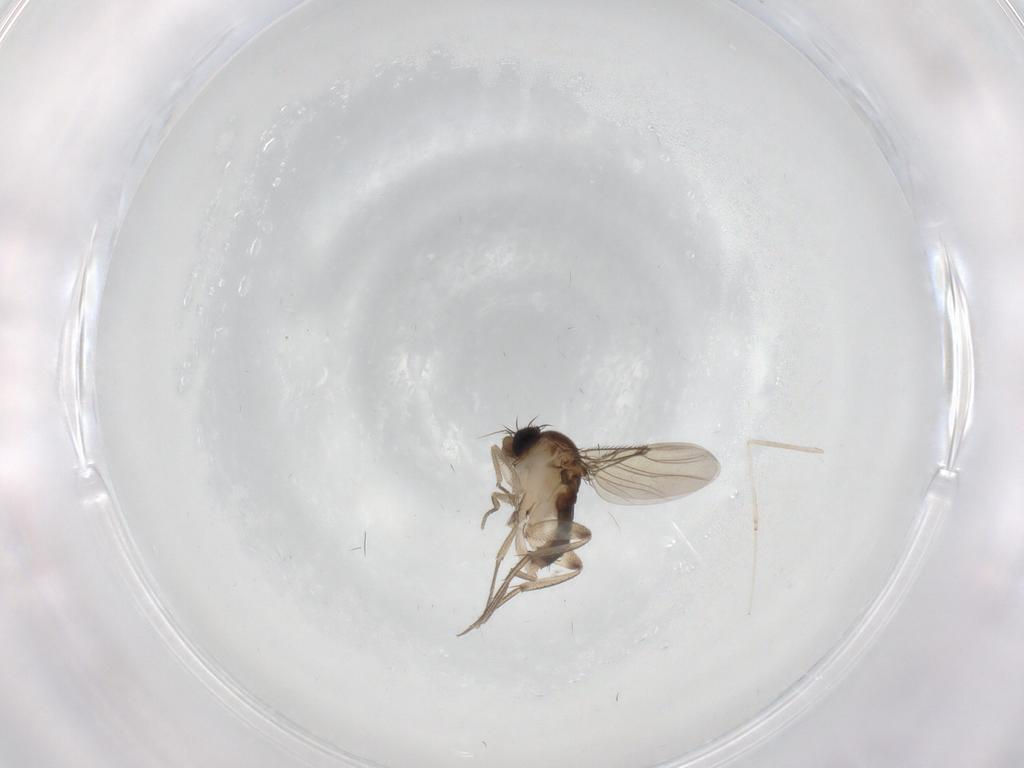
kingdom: Animalia
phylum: Arthropoda
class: Insecta
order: Diptera
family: Phoridae
